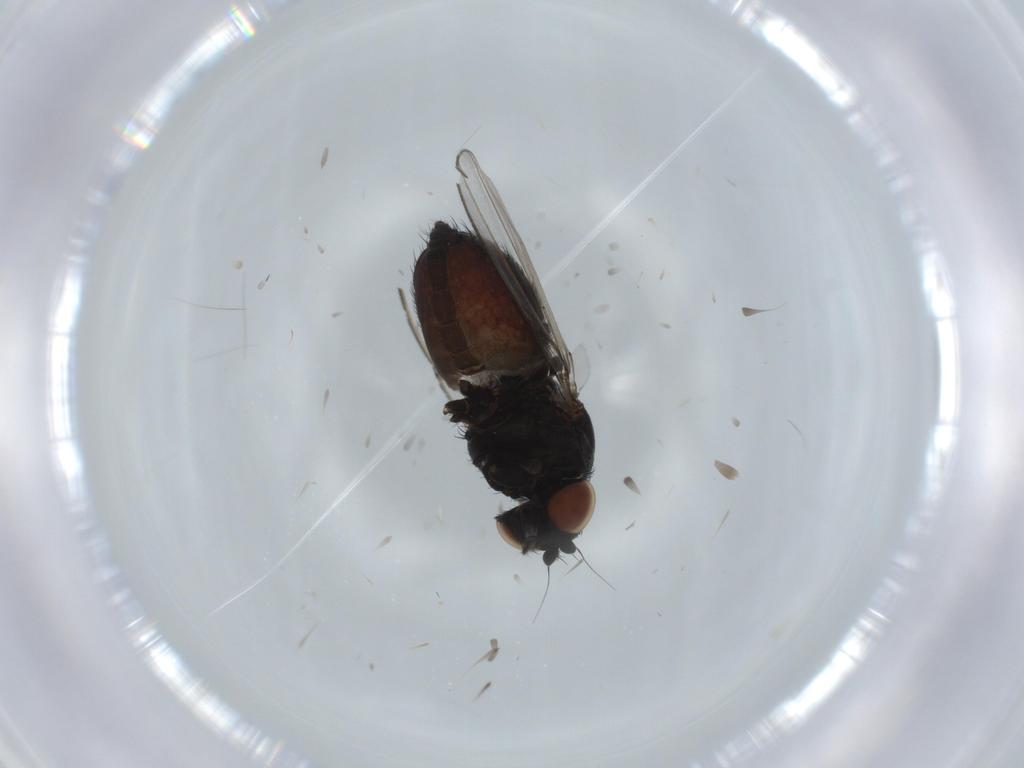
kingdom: Animalia
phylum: Arthropoda
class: Insecta
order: Diptera
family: Milichiidae
